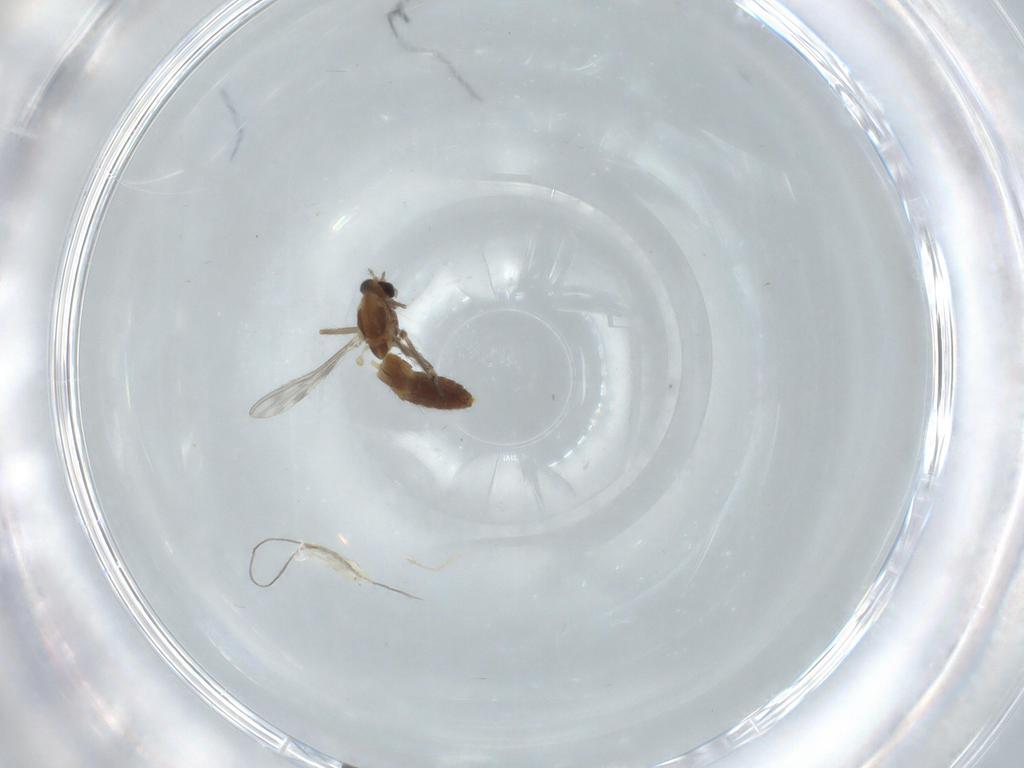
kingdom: Animalia
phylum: Arthropoda
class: Insecta
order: Diptera
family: Chironomidae
